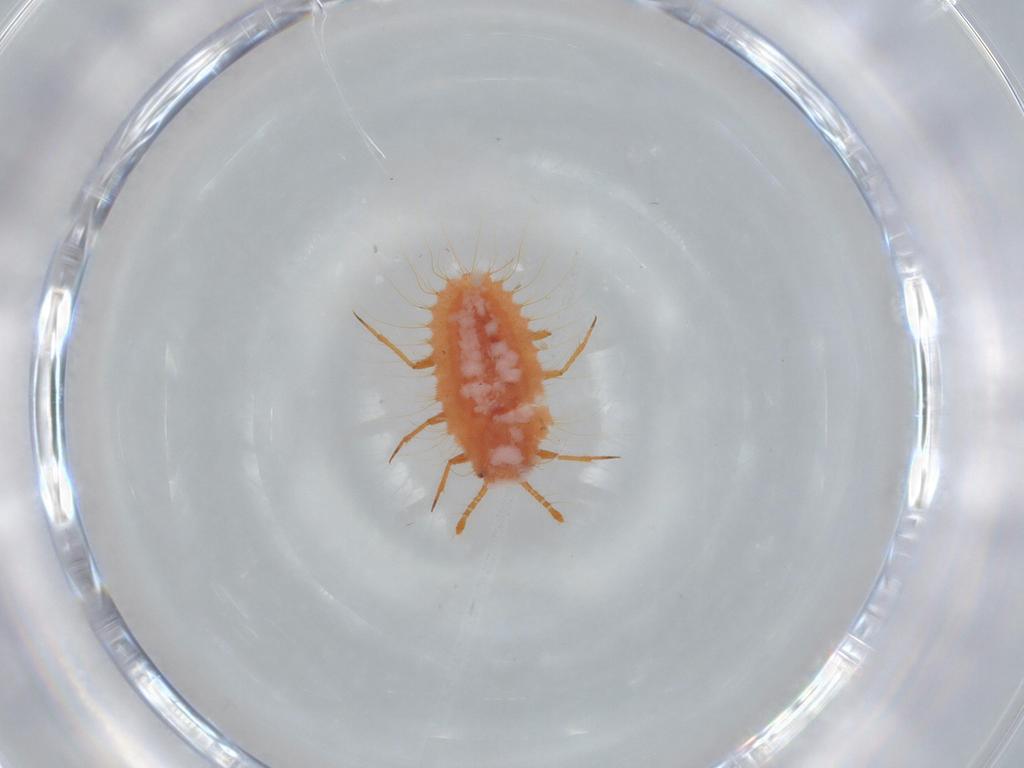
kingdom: Animalia
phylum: Arthropoda
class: Insecta
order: Hemiptera
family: Coccoidea_incertae_sedis
